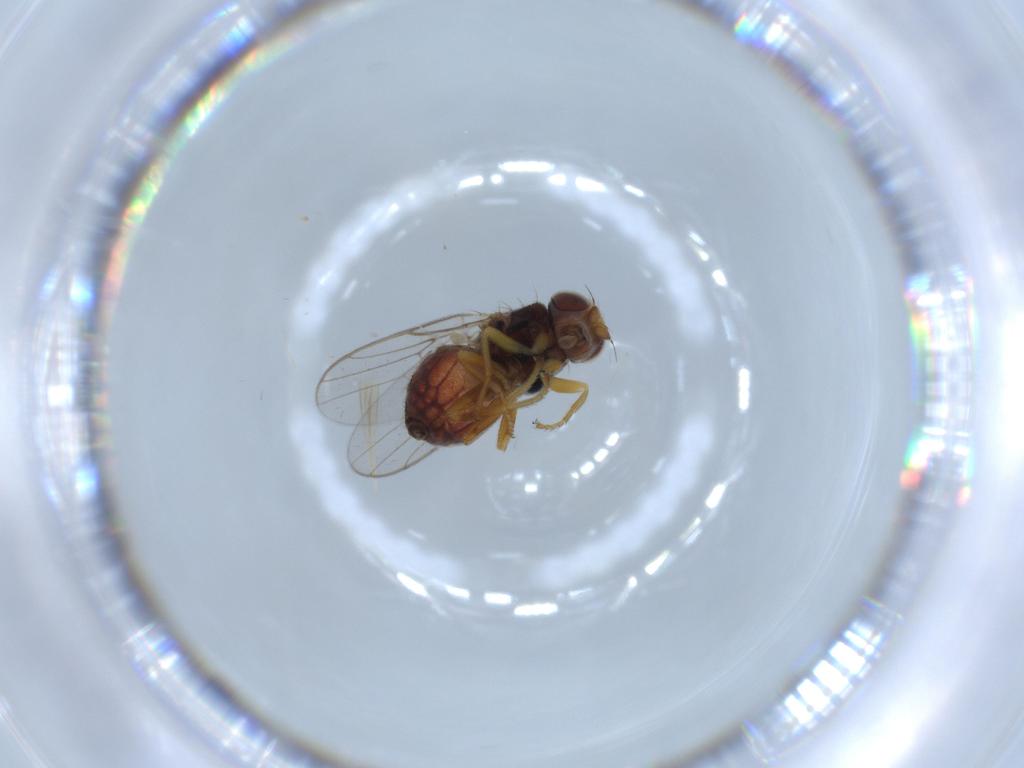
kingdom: Animalia
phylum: Arthropoda
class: Insecta
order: Diptera
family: Chloropidae
